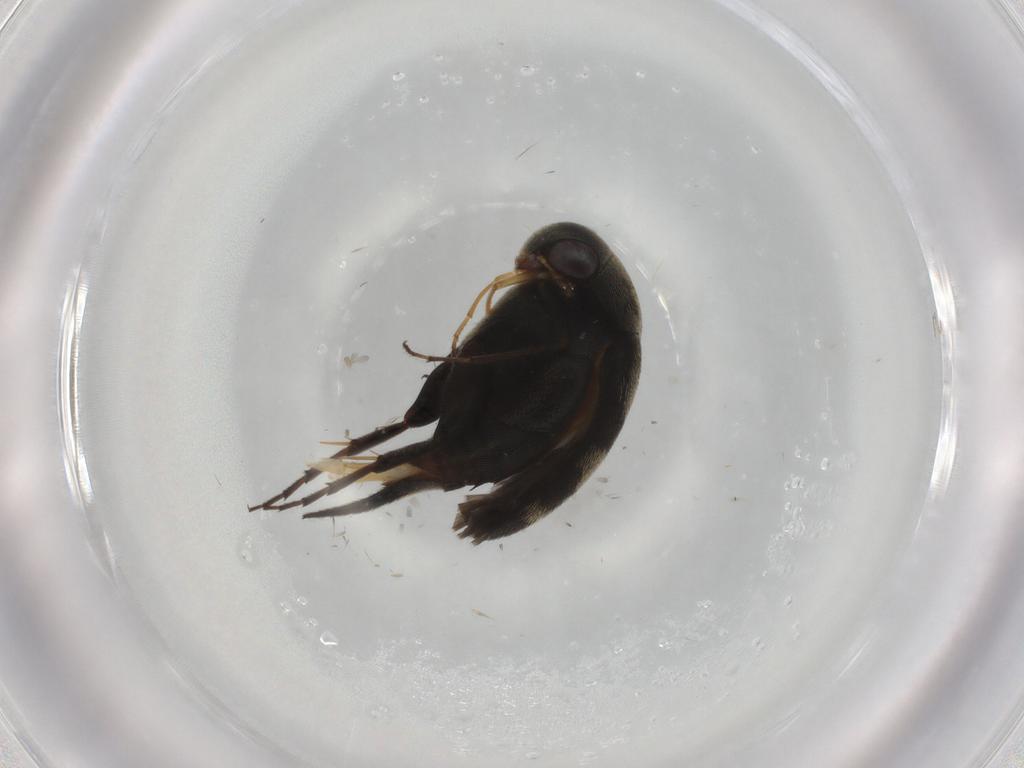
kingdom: Animalia
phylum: Arthropoda
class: Insecta
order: Coleoptera
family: Mordellidae
